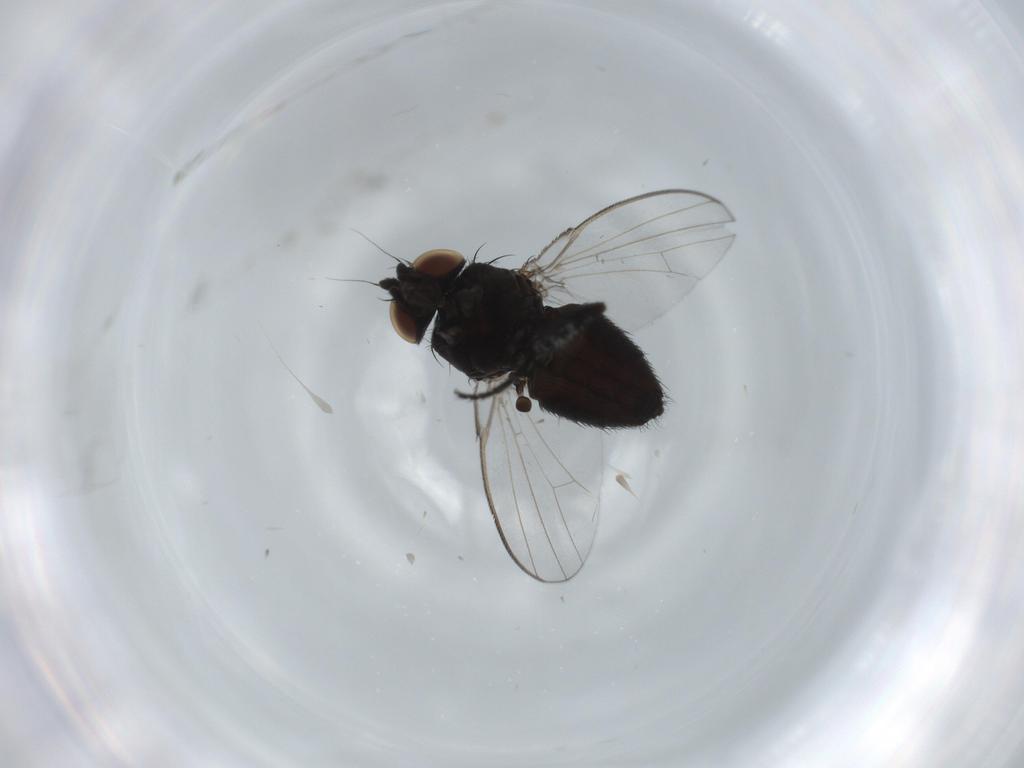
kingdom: Animalia
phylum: Arthropoda
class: Insecta
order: Diptera
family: Milichiidae
